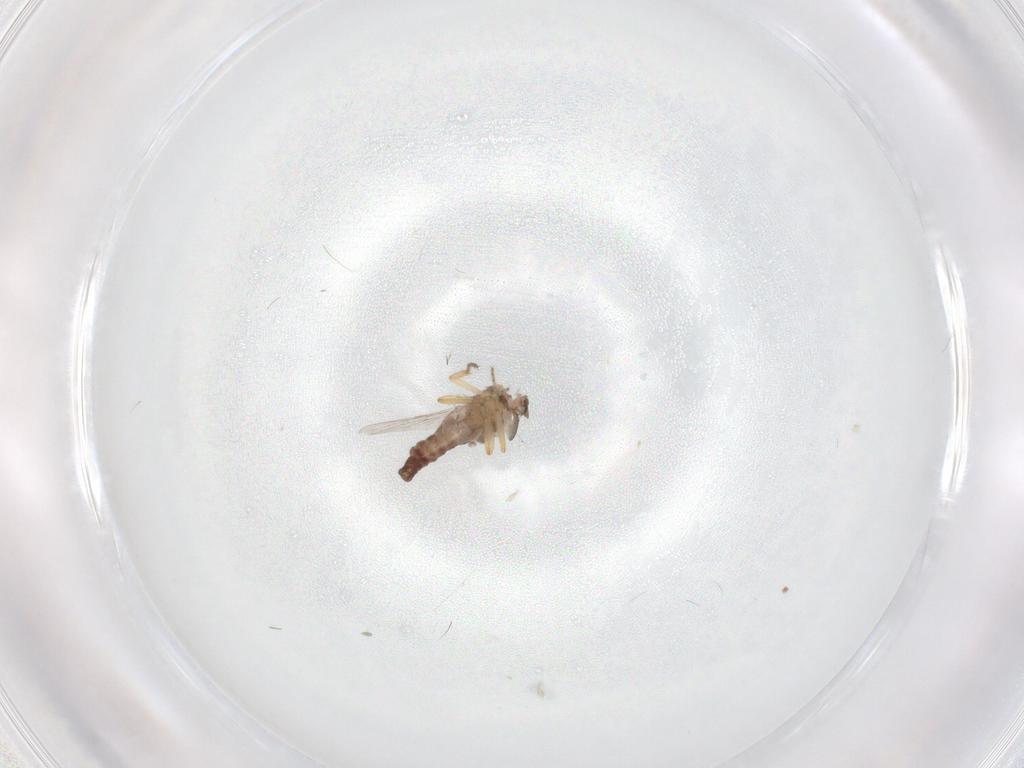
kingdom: Animalia
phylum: Arthropoda
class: Insecta
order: Diptera
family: Ceratopogonidae
